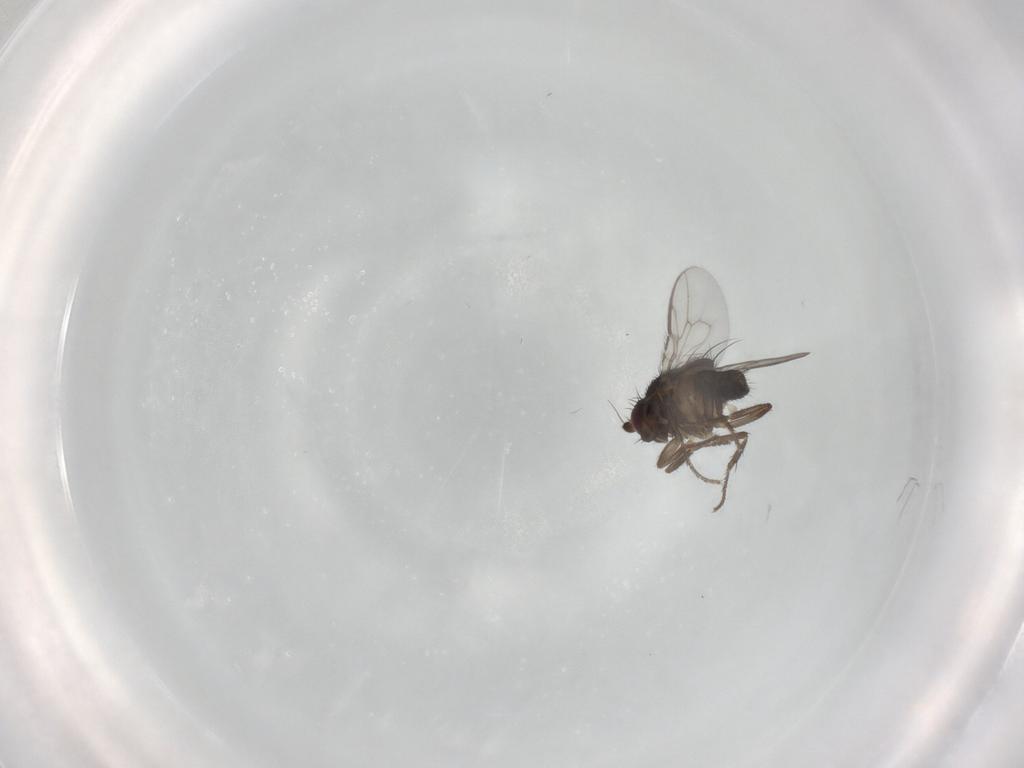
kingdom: Animalia
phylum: Arthropoda
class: Insecta
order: Diptera
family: Sphaeroceridae
